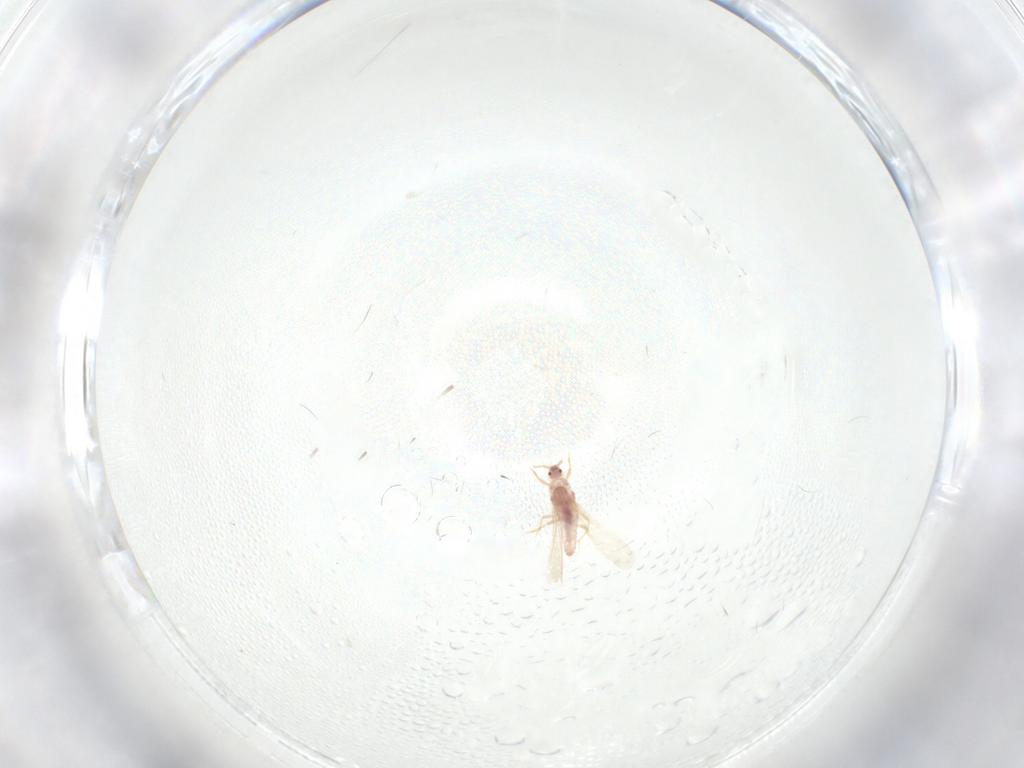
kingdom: Animalia
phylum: Arthropoda
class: Insecta
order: Hemiptera
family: Pseudococcidae
